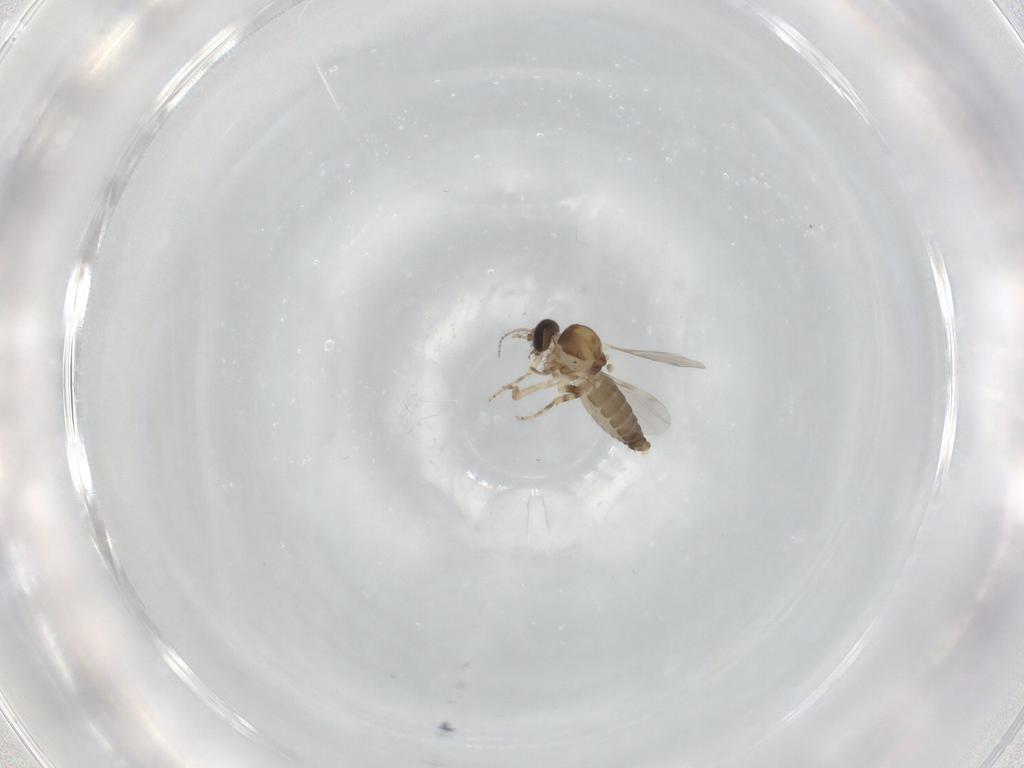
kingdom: Animalia
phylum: Arthropoda
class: Insecta
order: Diptera
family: Ceratopogonidae
